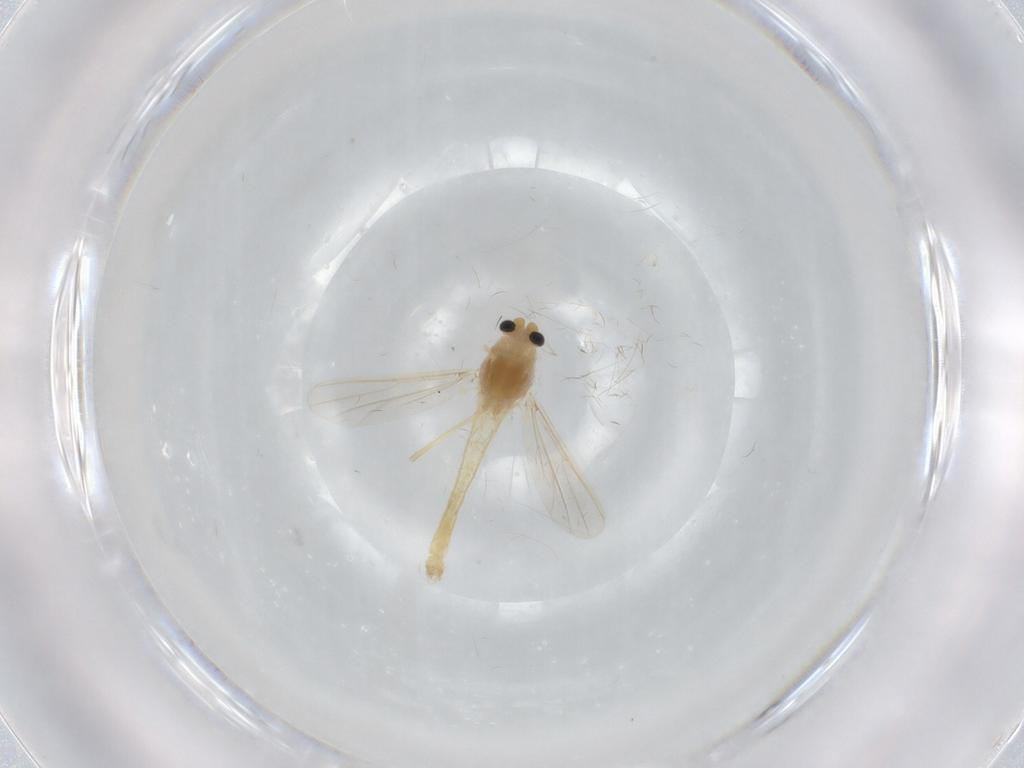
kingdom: Animalia
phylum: Arthropoda
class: Insecta
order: Diptera
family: Chironomidae
